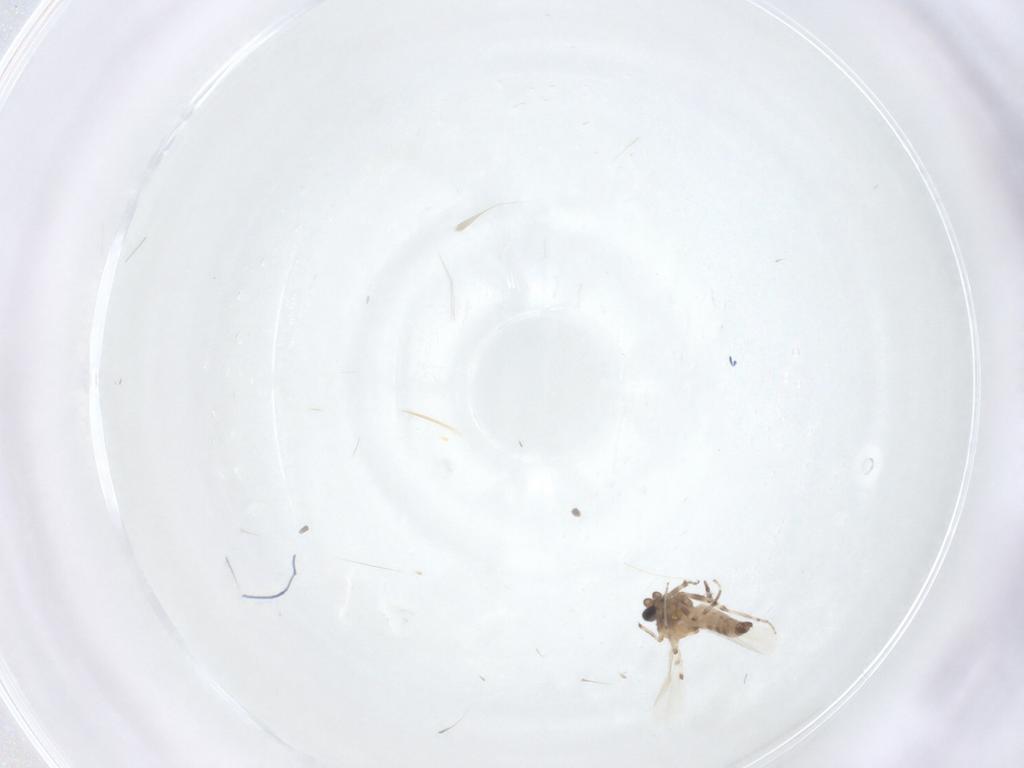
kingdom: Animalia
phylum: Arthropoda
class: Insecta
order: Diptera
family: Ceratopogonidae
